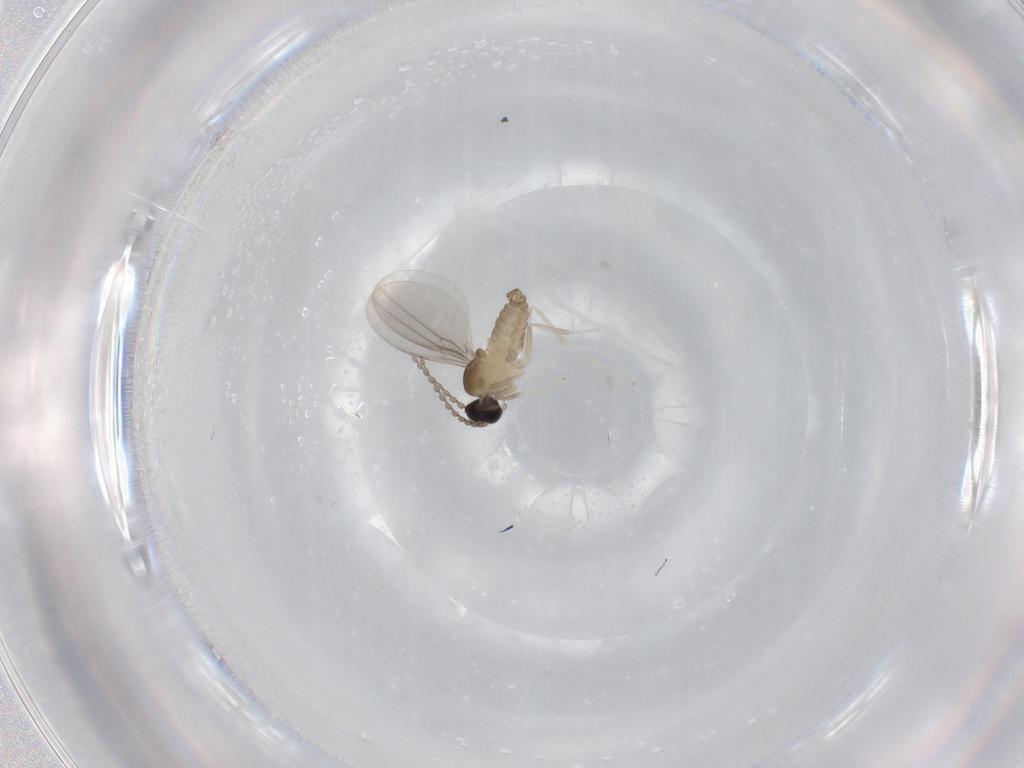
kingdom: Animalia
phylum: Arthropoda
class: Insecta
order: Diptera
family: Cecidomyiidae
